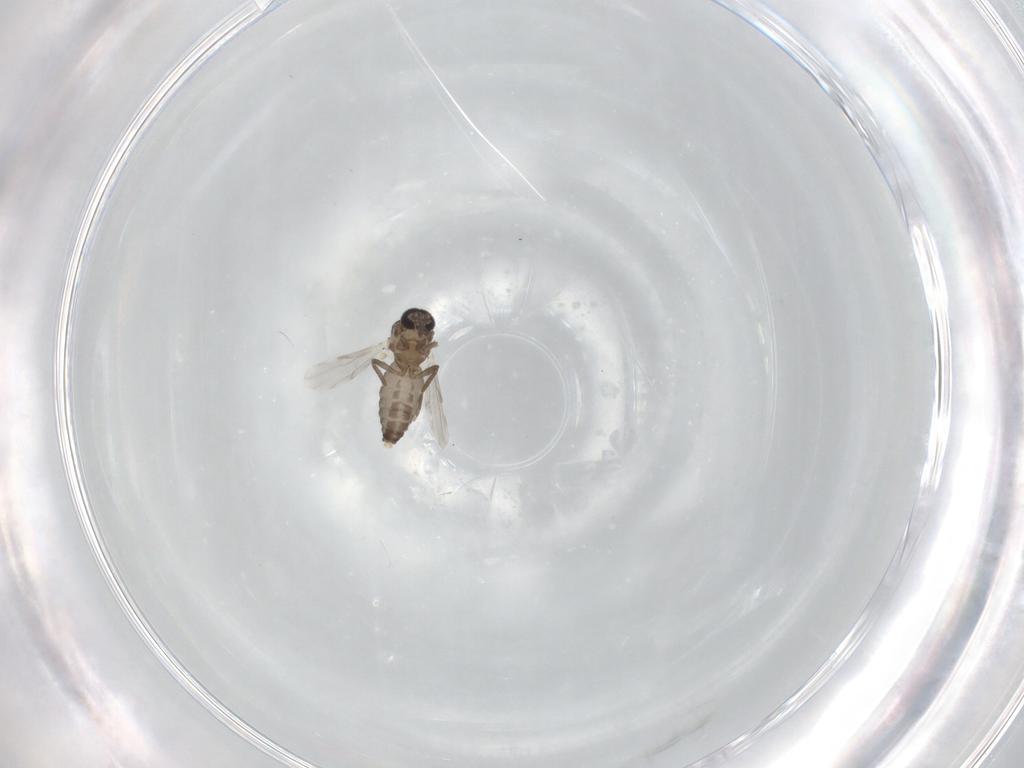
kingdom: Animalia
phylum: Arthropoda
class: Insecta
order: Diptera
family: Ceratopogonidae
